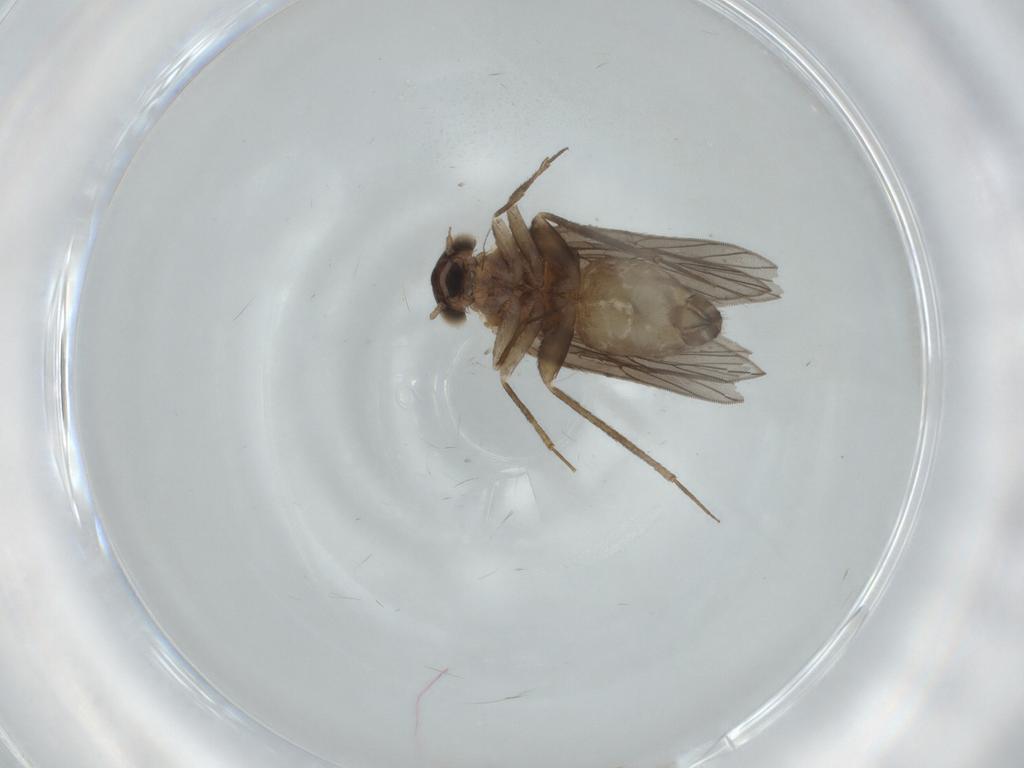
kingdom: Animalia
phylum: Arthropoda
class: Insecta
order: Psocodea
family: Lepidopsocidae
